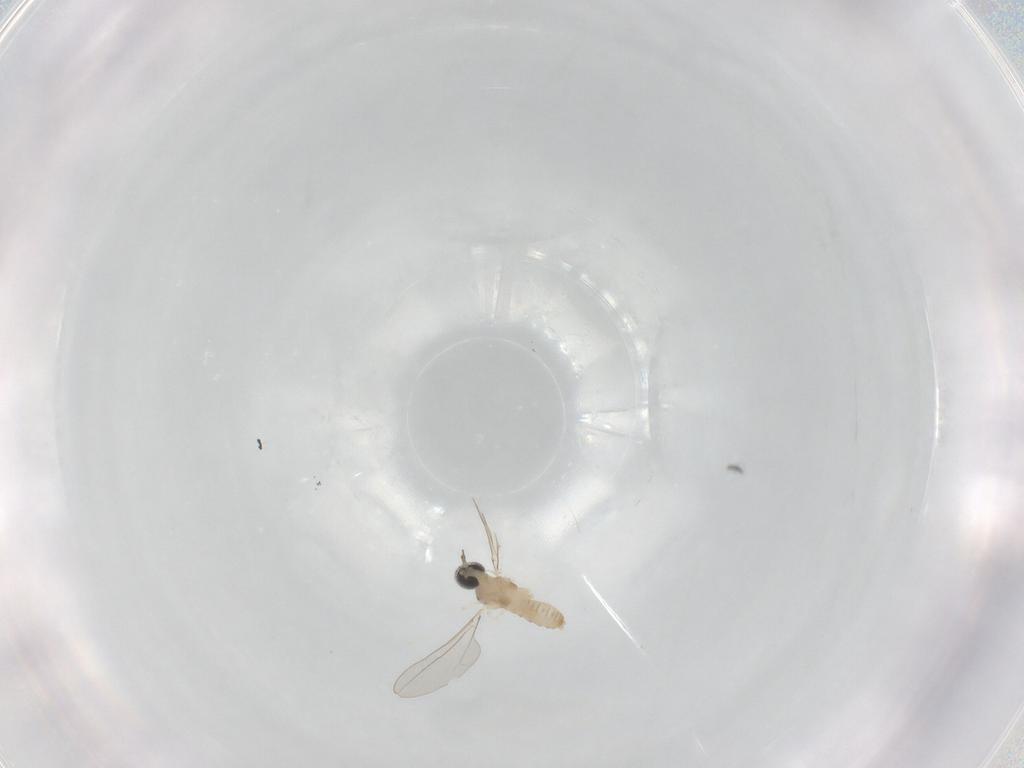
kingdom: Animalia
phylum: Arthropoda
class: Insecta
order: Diptera
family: Cecidomyiidae
